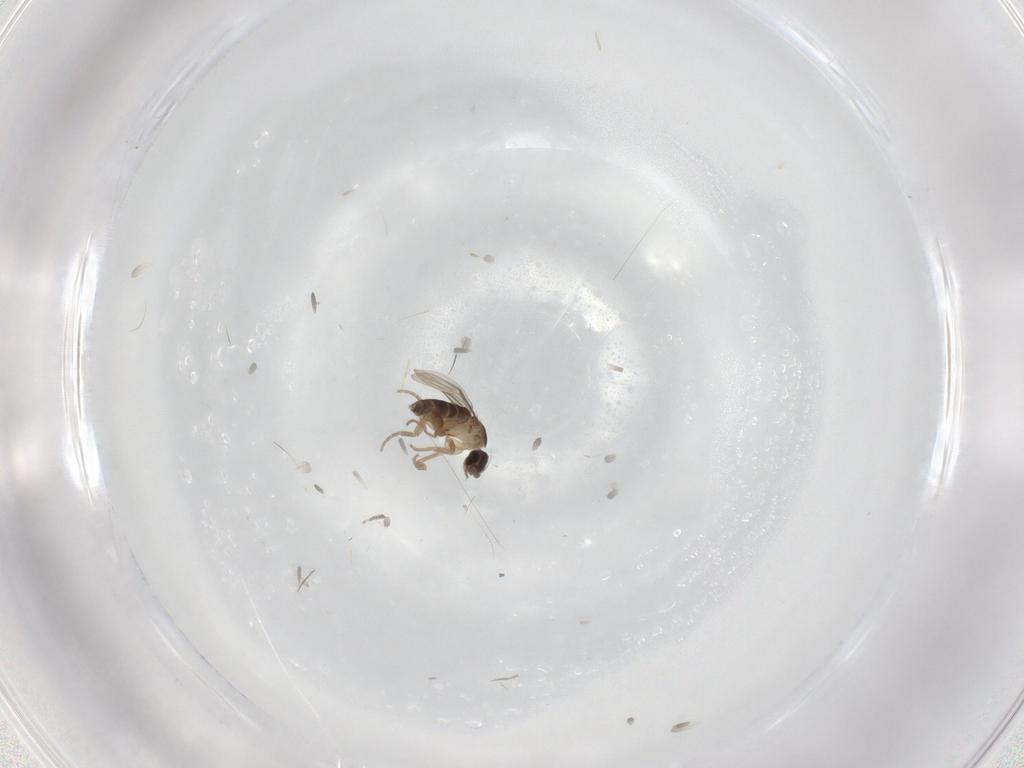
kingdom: Animalia
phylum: Arthropoda
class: Insecta
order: Diptera
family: Phoridae
